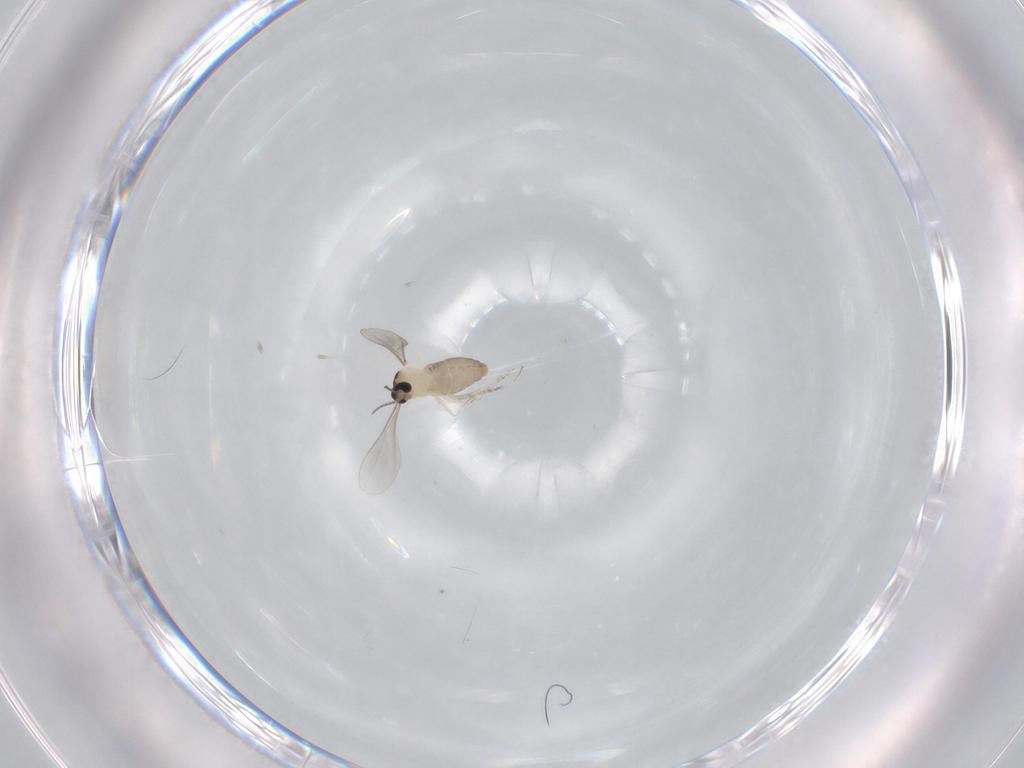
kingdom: Animalia
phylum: Arthropoda
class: Insecta
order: Diptera
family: Cecidomyiidae
